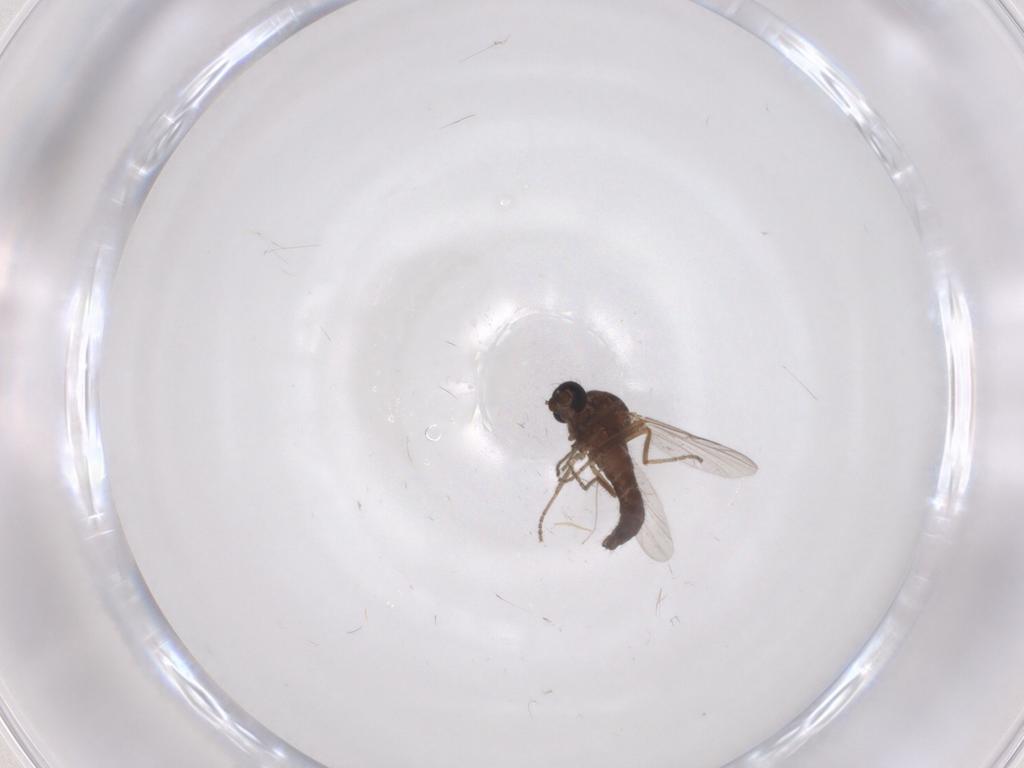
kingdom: Animalia
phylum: Arthropoda
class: Insecta
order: Diptera
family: Ceratopogonidae
